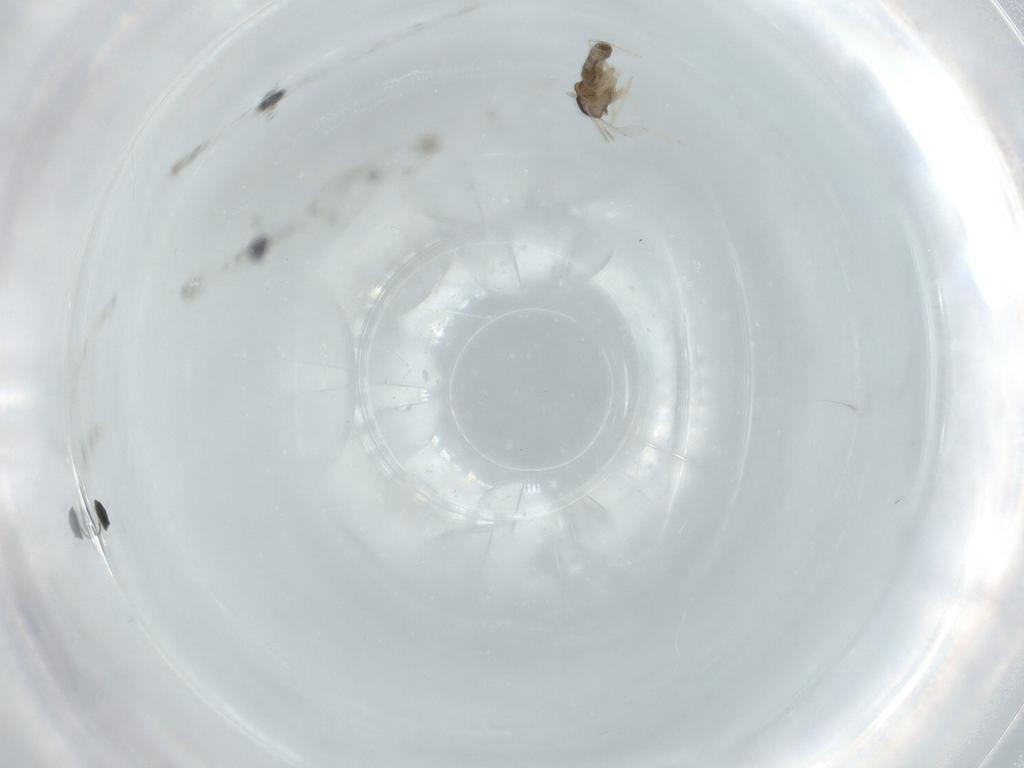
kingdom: Animalia
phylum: Arthropoda
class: Insecta
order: Diptera
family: Cecidomyiidae
